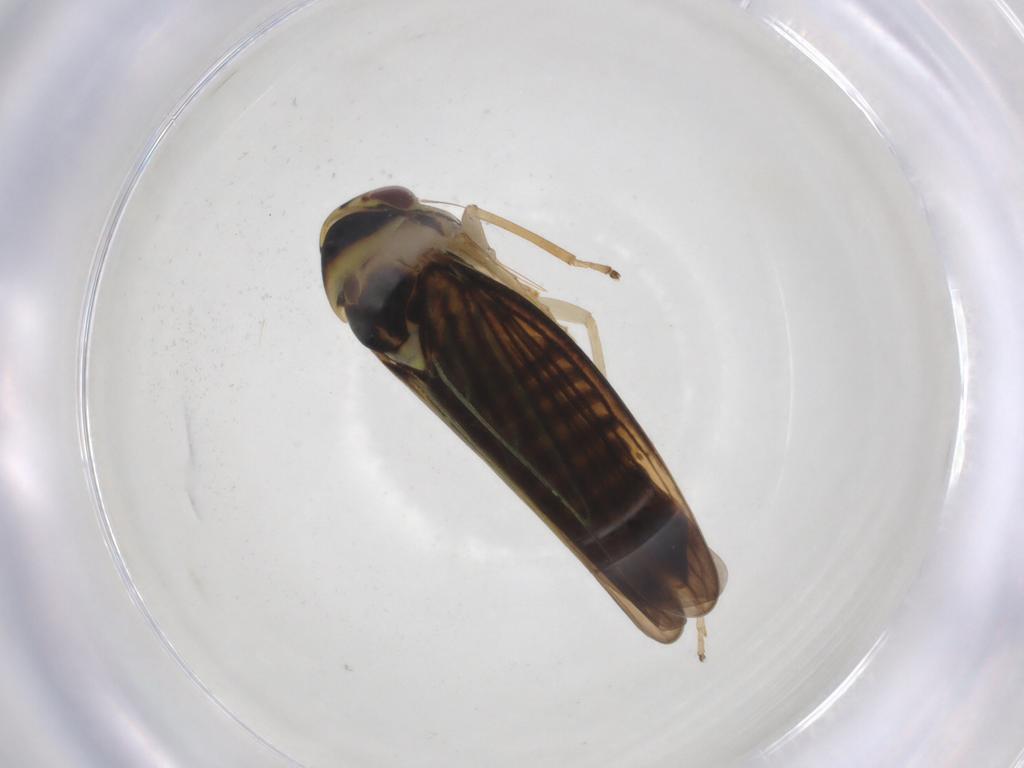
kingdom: Animalia
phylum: Arthropoda
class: Insecta
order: Hemiptera
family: Cicadellidae
